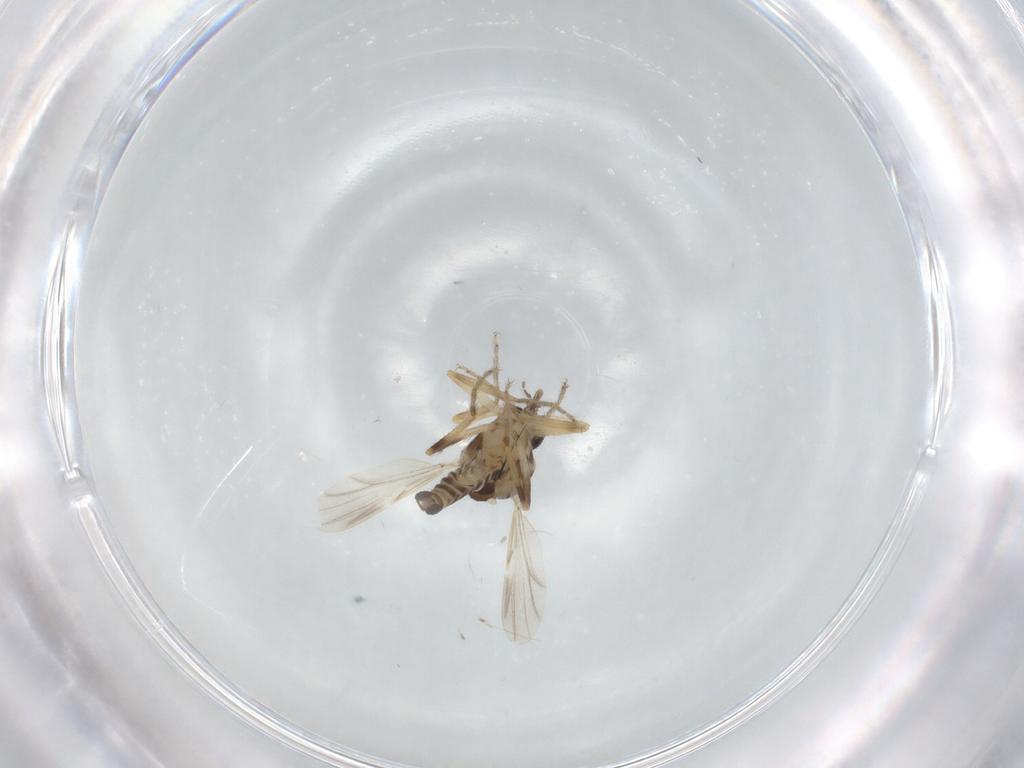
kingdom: Animalia
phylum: Arthropoda
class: Insecta
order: Diptera
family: Ceratopogonidae
